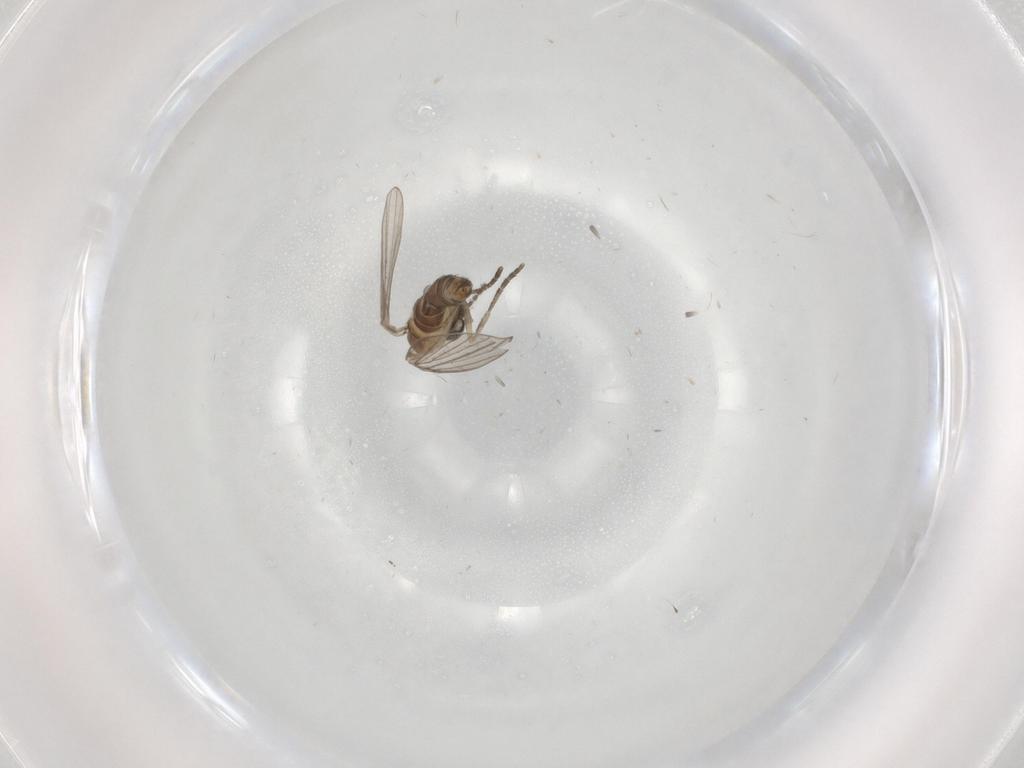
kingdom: Animalia
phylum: Arthropoda
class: Insecta
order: Diptera
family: Psychodidae
